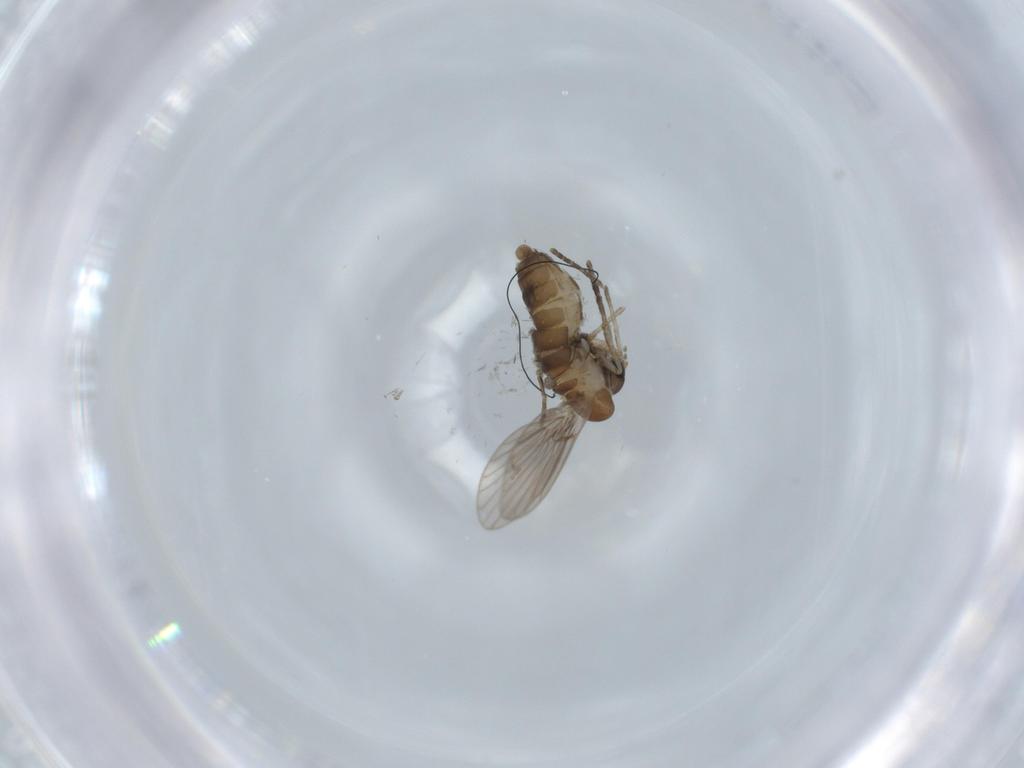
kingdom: Animalia
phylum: Arthropoda
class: Insecta
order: Diptera
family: Psychodidae
